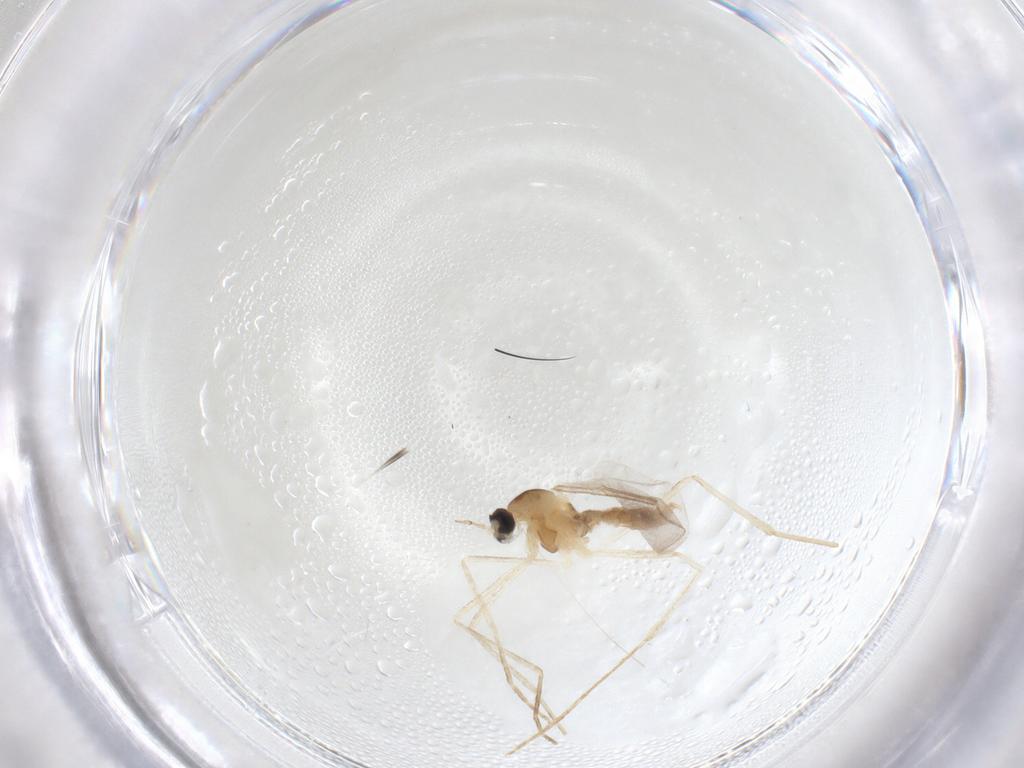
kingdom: Animalia
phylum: Arthropoda
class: Insecta
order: Diptera
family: Cecidomyiidae
